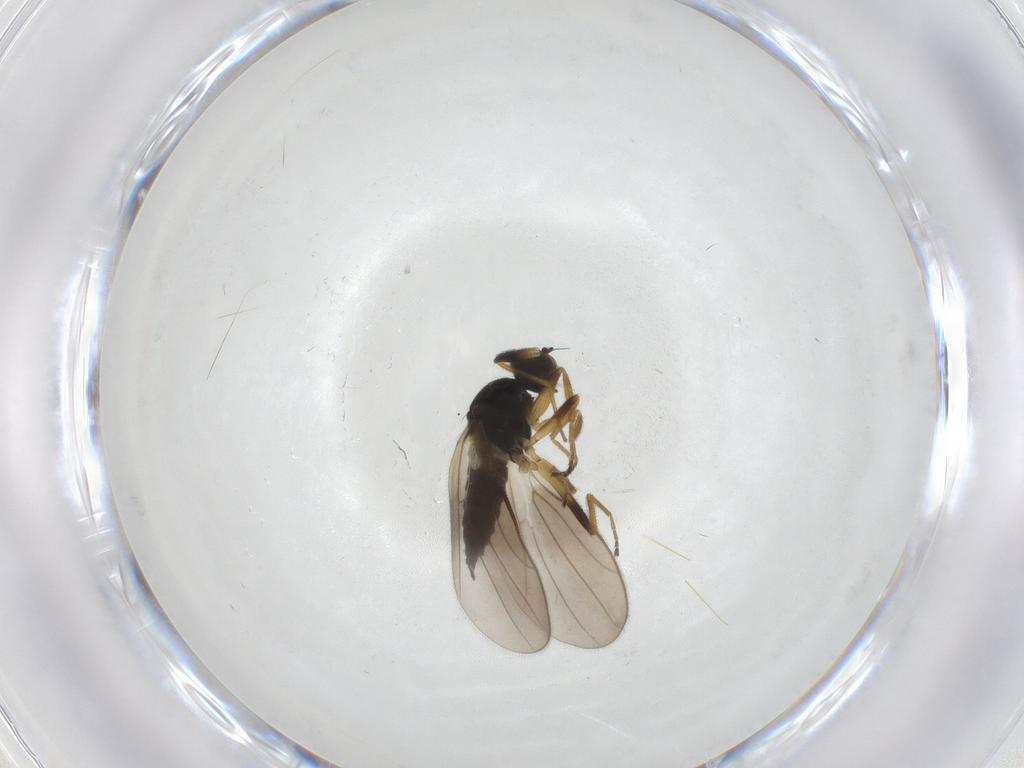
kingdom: Animalia
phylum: Arthropoda
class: Insecta
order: Diptera
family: Hybotidae
